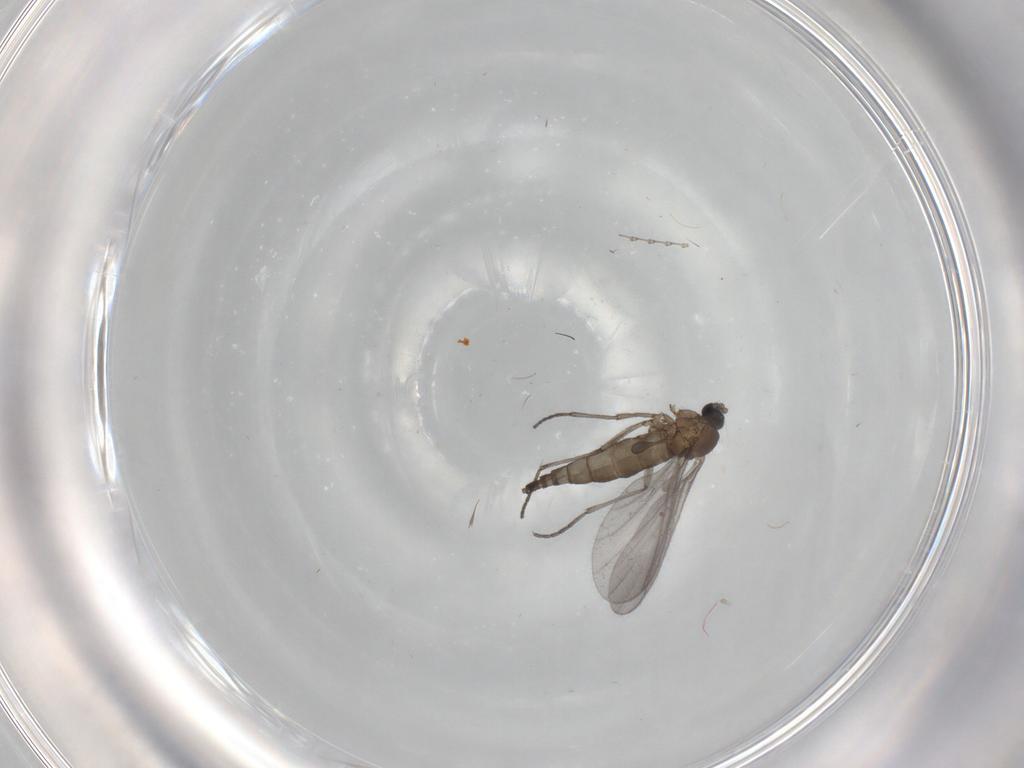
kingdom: Animalia
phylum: Arthropoda
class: Insecta
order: Diptera
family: Sciaridae
